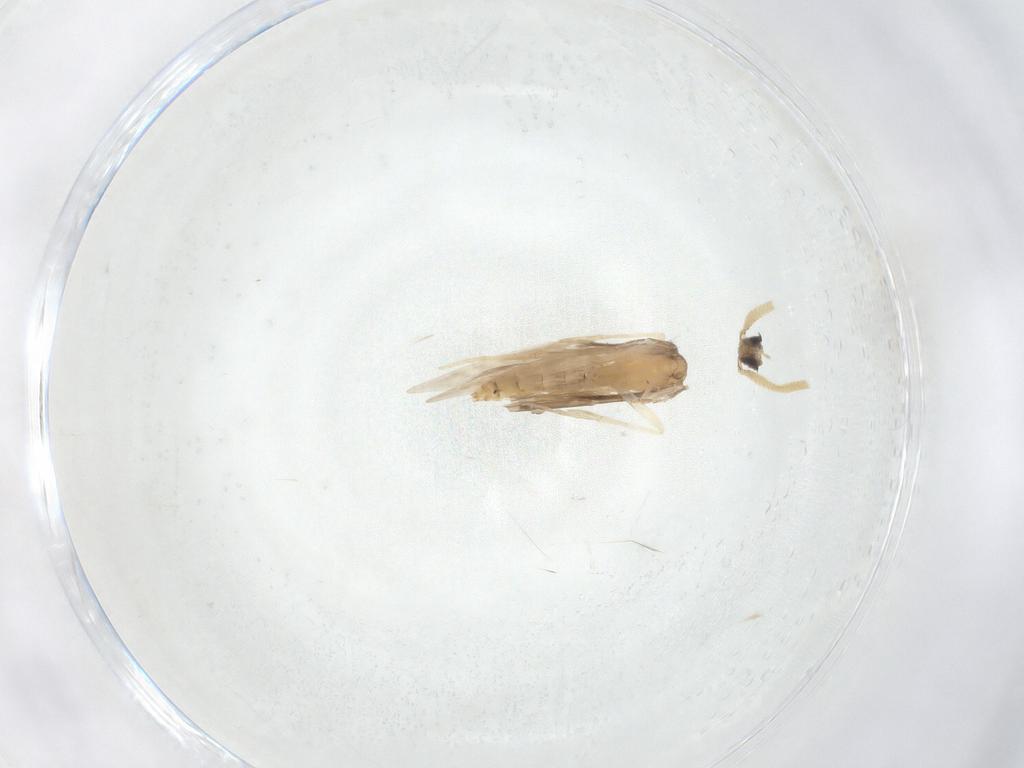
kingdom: Animalia
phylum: Arthropoda
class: Insecta
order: Trichoptera
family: Hydroptilidae
